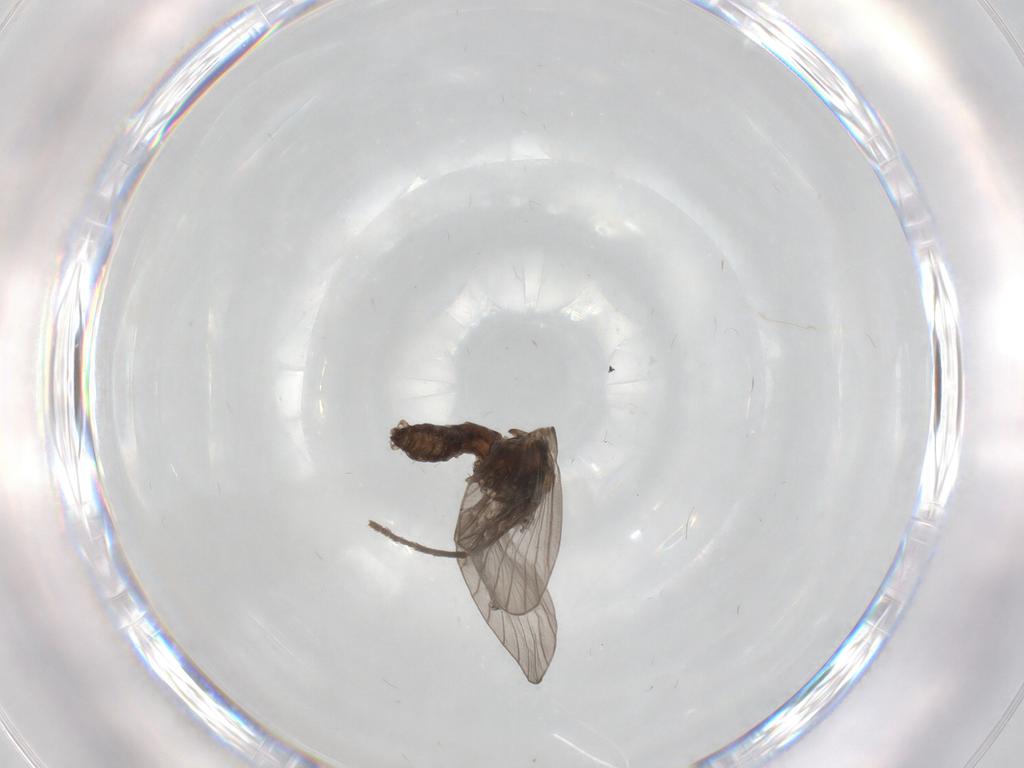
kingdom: Animalia
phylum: Arthropoda
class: Insecta
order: Diptera
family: Psychodidae
